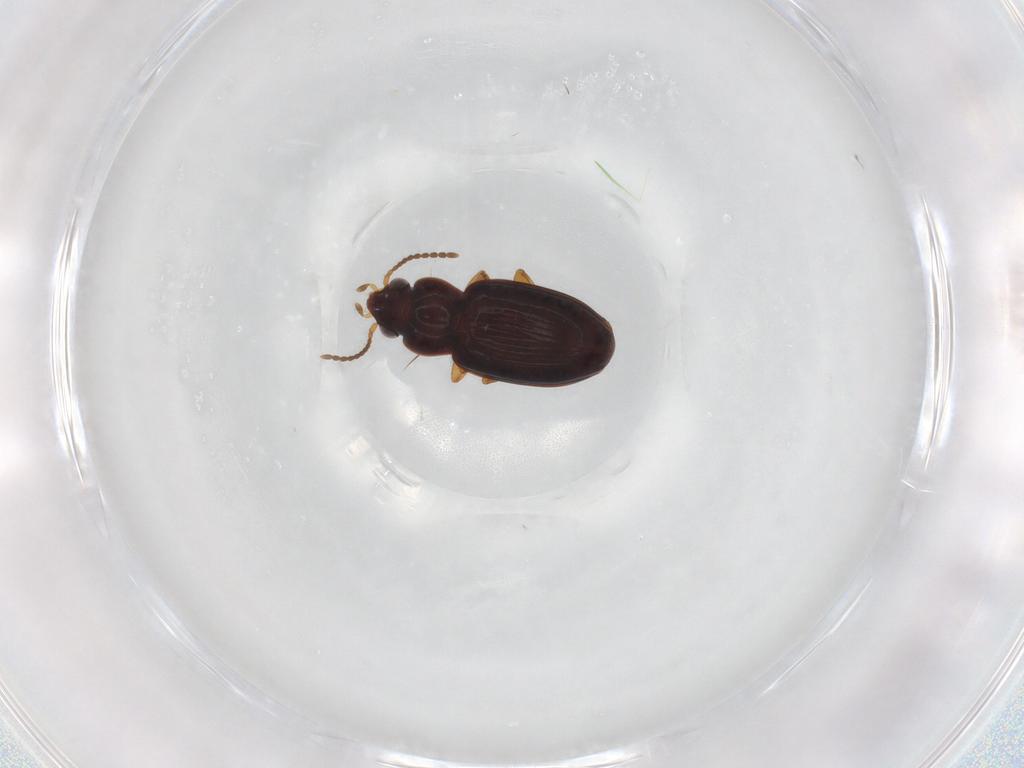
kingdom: Animalia
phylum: Arthropoda
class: Insecta
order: Coleoptera
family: Carabidae
